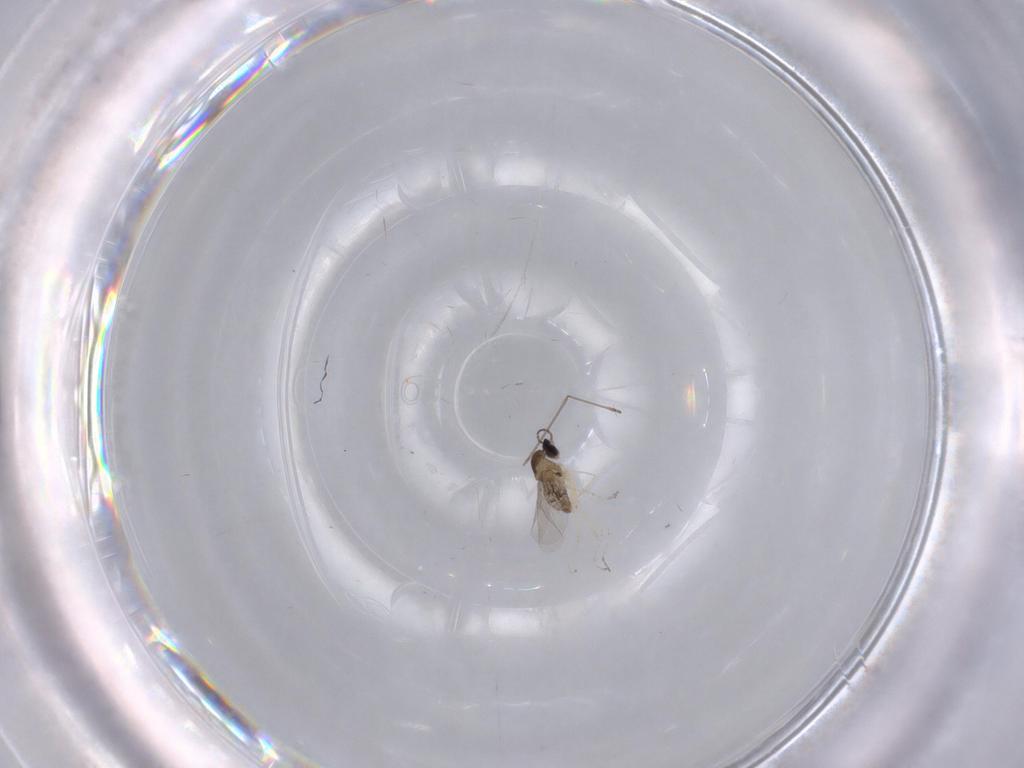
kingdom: Animalia
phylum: Arthropoda
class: Insecta
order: Diptera
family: Cecidomyiidae
